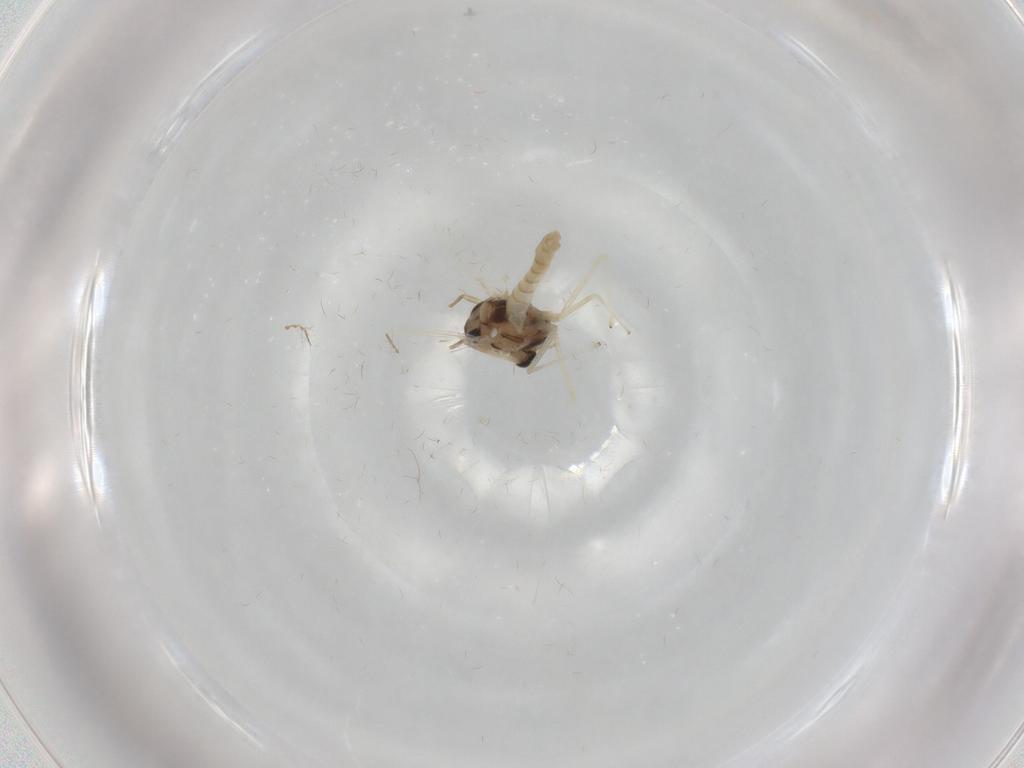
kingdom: Animalia
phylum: Arthropoda
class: Insecta
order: Diptera
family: Chironomidae
